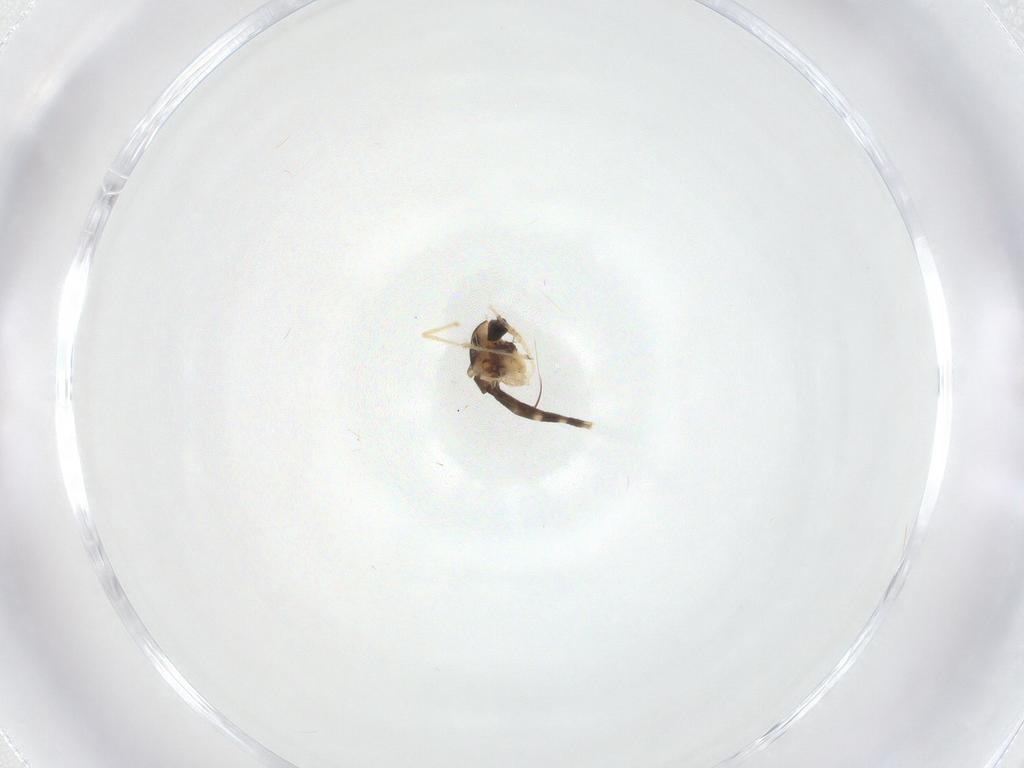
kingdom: Animalia
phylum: Arthropoda
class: Insecta
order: Diptera
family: Chironomidae
